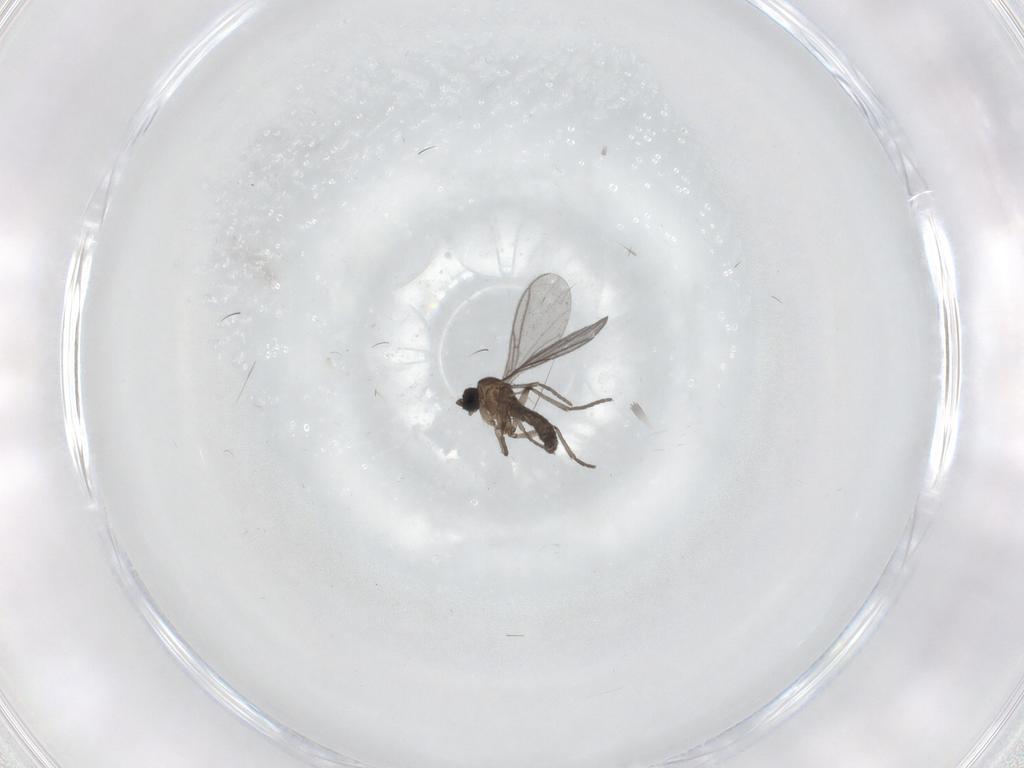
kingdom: Animalia
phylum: Arthropoda
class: Insecta
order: Diptera
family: Sciaridae
